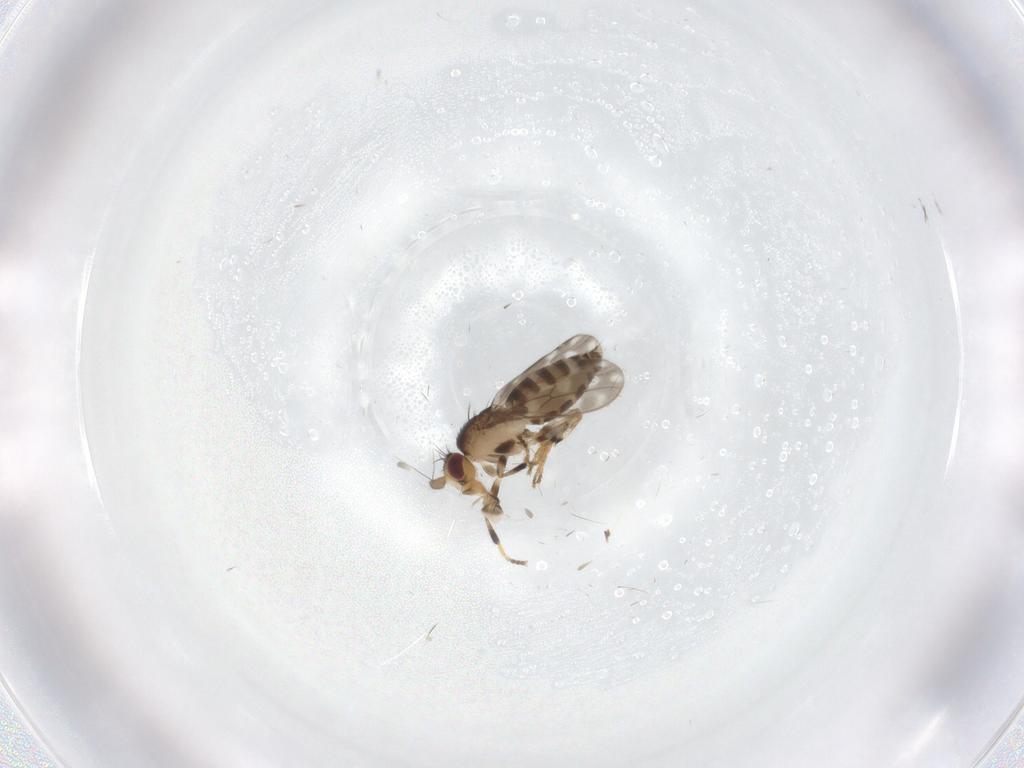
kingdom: Animalia
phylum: Arthropoda
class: Insecta
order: Diptera
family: Sphaeroceridae
